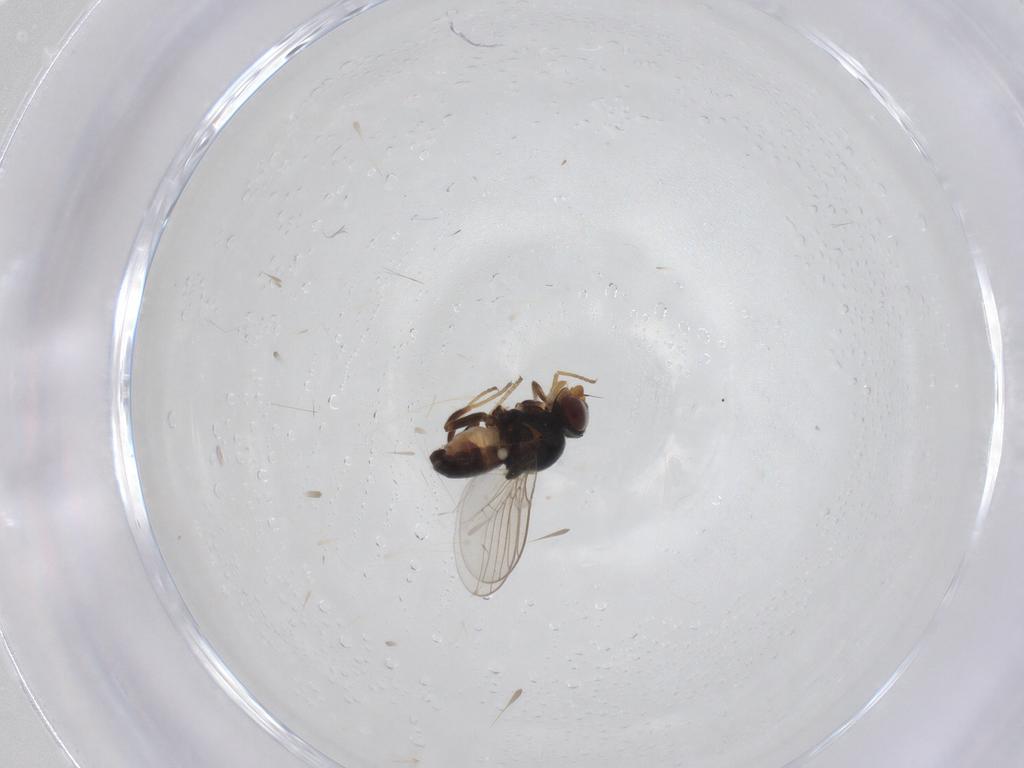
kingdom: Animalia
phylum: Arthropoda
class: Insecta
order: Diptera
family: Chloropidae
